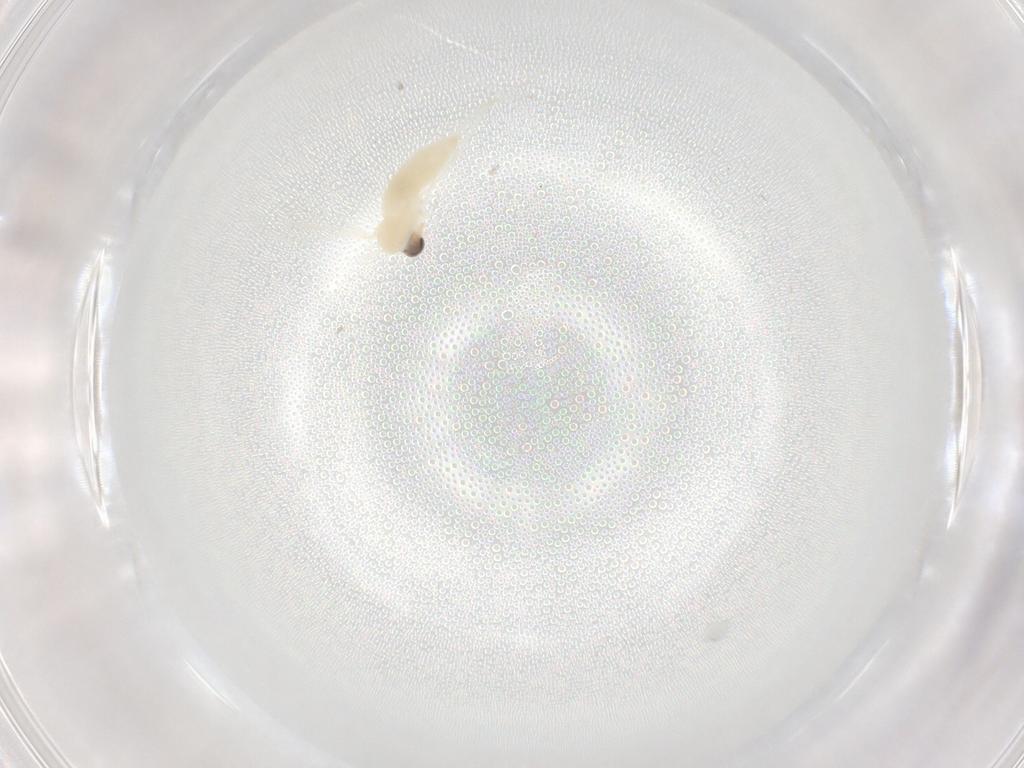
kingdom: Animalia
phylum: Arthropoda
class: Insecta
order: Diptera
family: Cecidomyiidae
